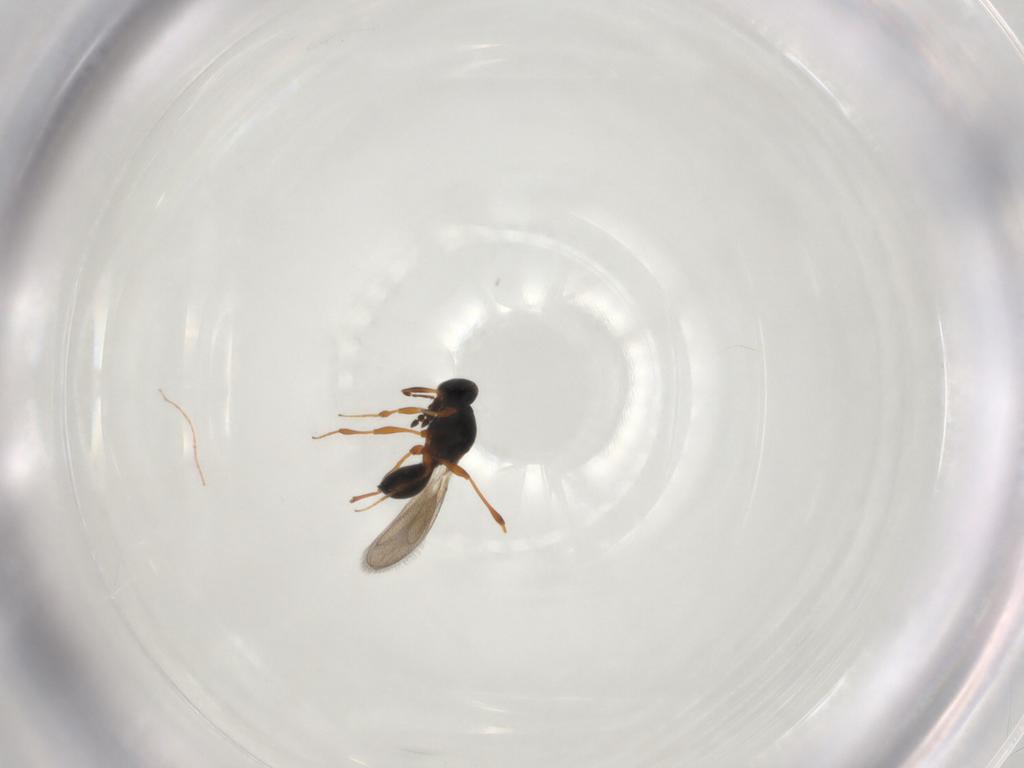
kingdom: Animalia
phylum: Arthropoda
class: Insecta
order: Hymenoptera
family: Platygastridae
